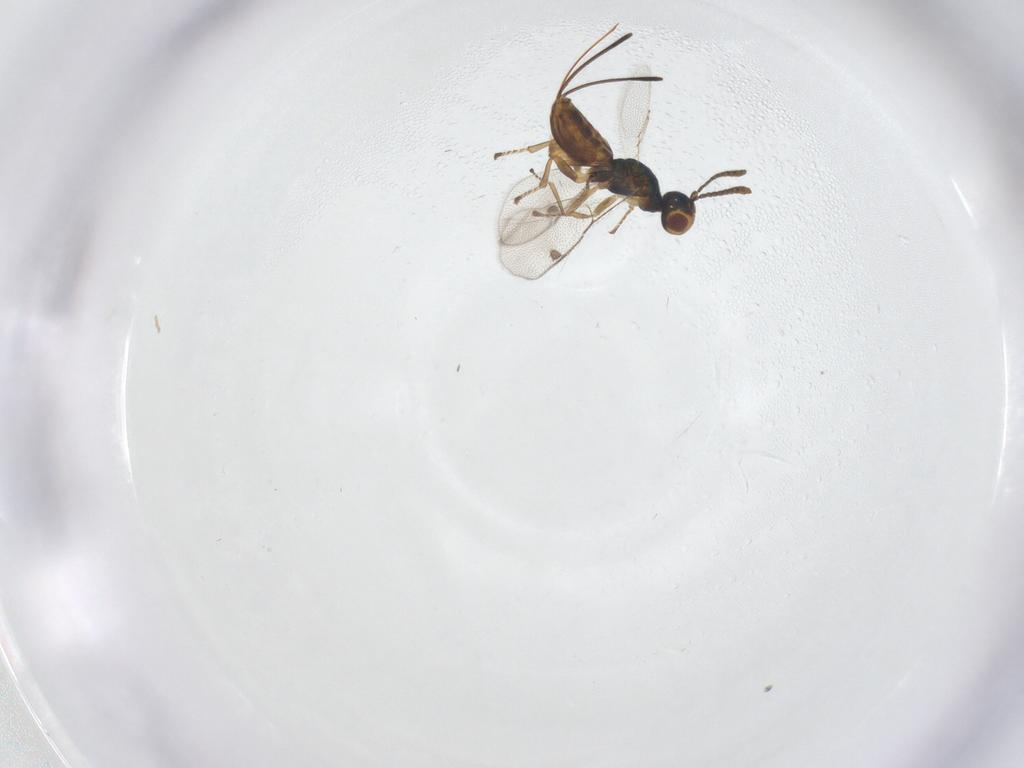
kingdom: Animalia
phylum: Arthropoda
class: Insecta
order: Hymenoptera
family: Megastigmidae
